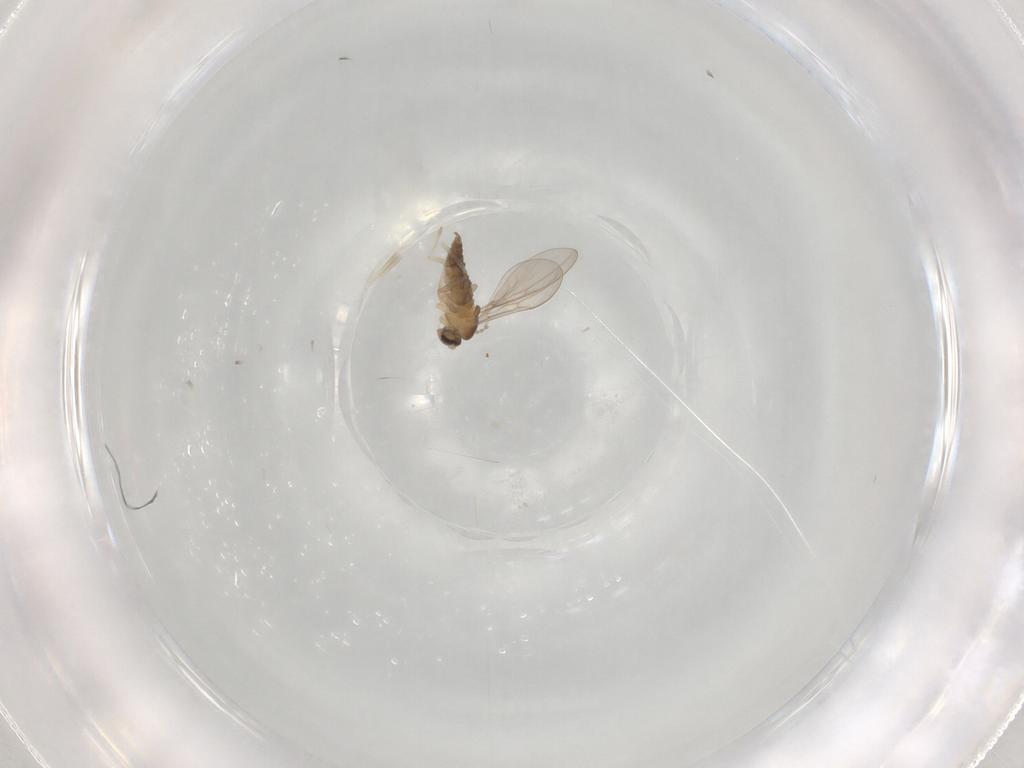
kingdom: Animalia
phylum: Arthropoda
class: Insecta
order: Diptera
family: Cecidomyiidae
